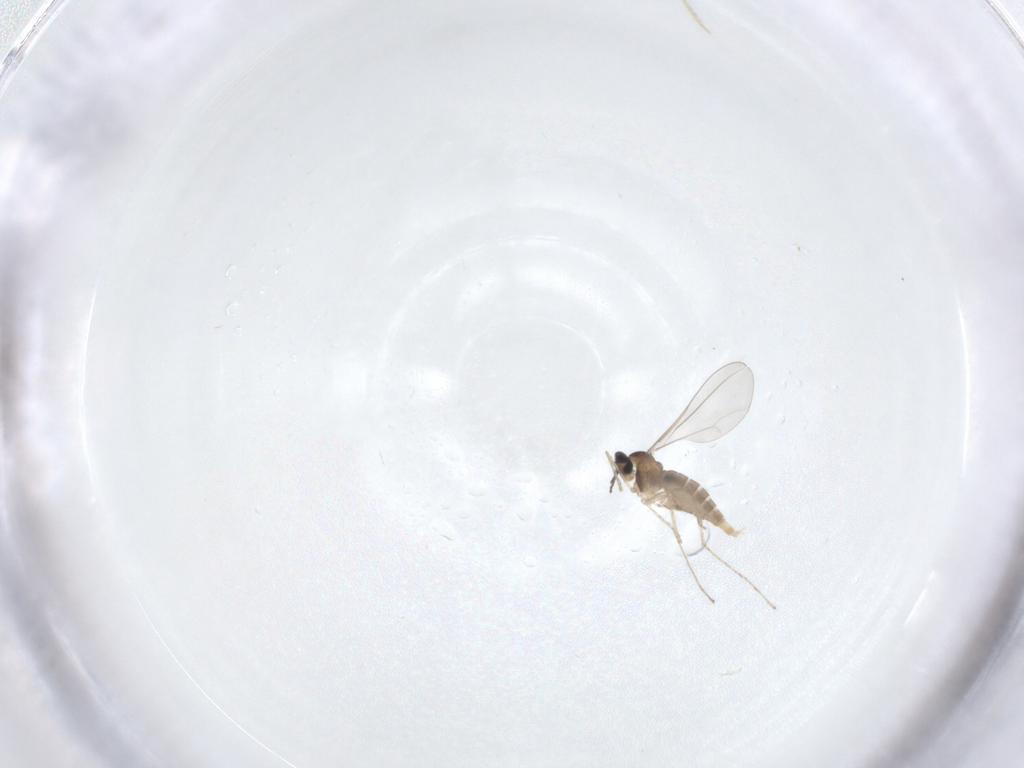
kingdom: Animalia
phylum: Arthropoda
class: Insecta
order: Diptera
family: Cecidomyiidae
